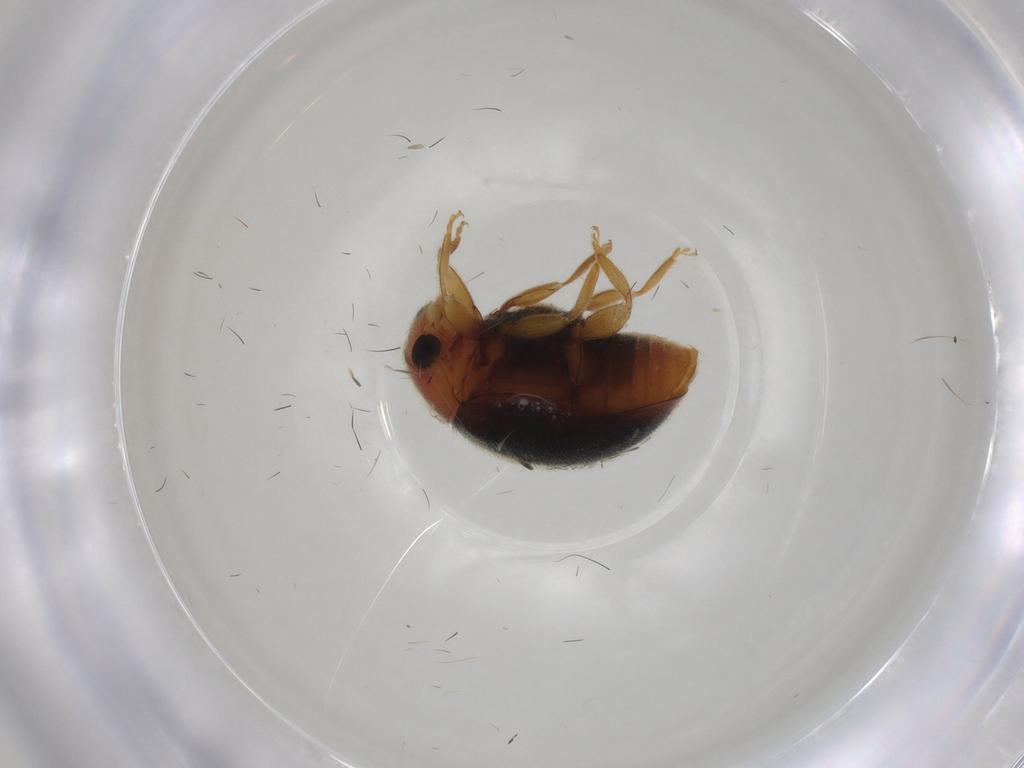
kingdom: Animalia
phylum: Arthropoda
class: Insecta
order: Coleoptera
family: Coccinellidae
